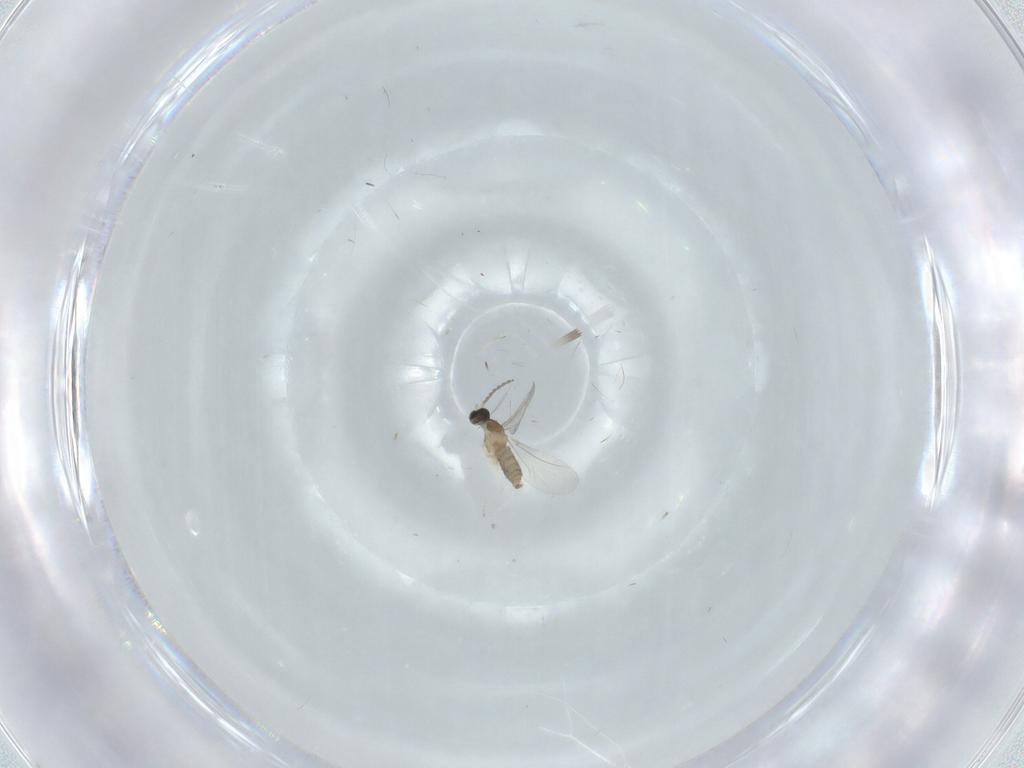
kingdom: Animalia
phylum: Arthropoda
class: Insecta
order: Diptera
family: Cecidomyiidae
